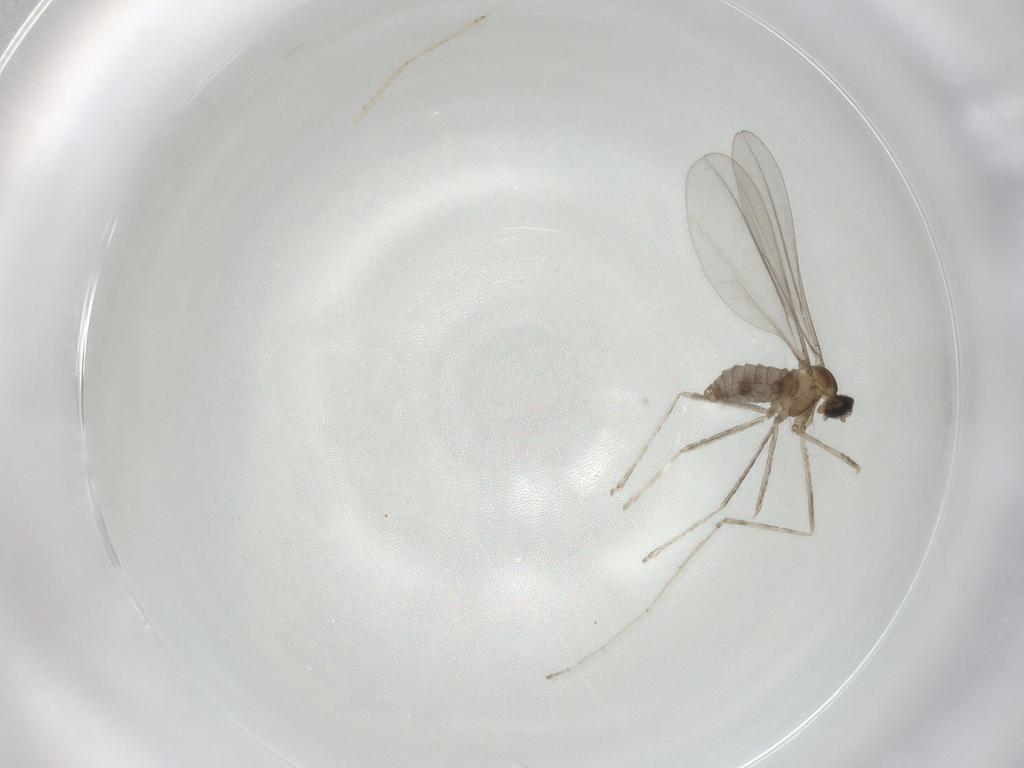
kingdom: Animalia
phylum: Arthropoda
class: Insecta
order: Diptera
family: Cecidomyiidae
